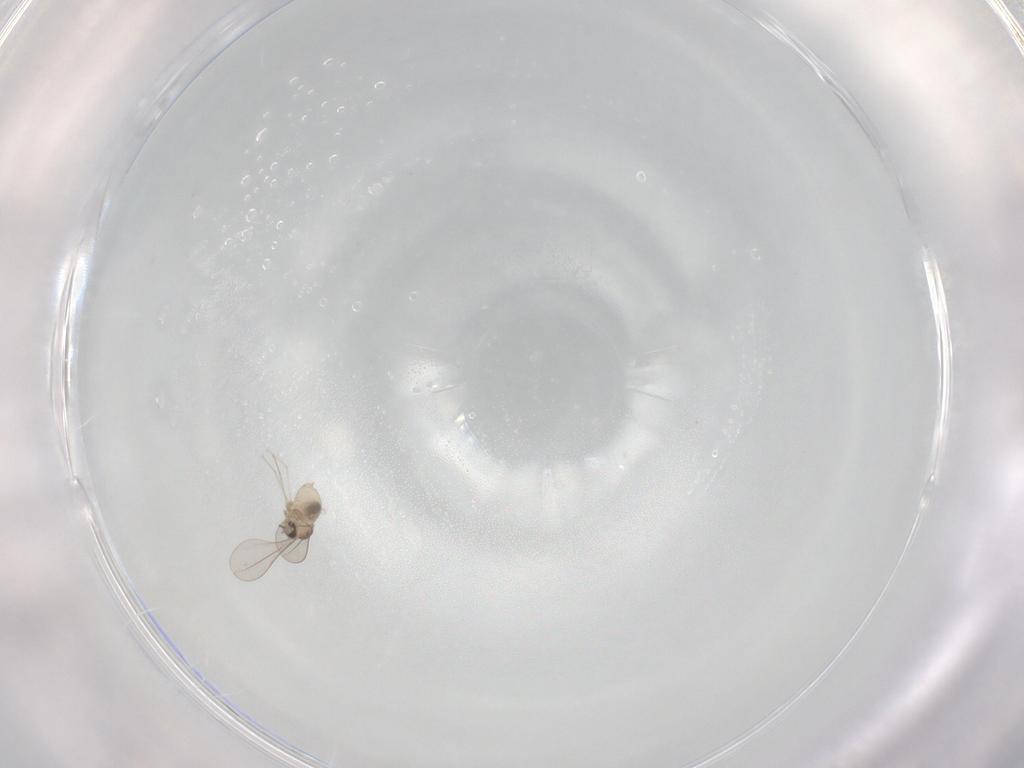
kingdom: Animalia
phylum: Arthropoda
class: Insecta
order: Diptera
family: Cecidomyiidae
